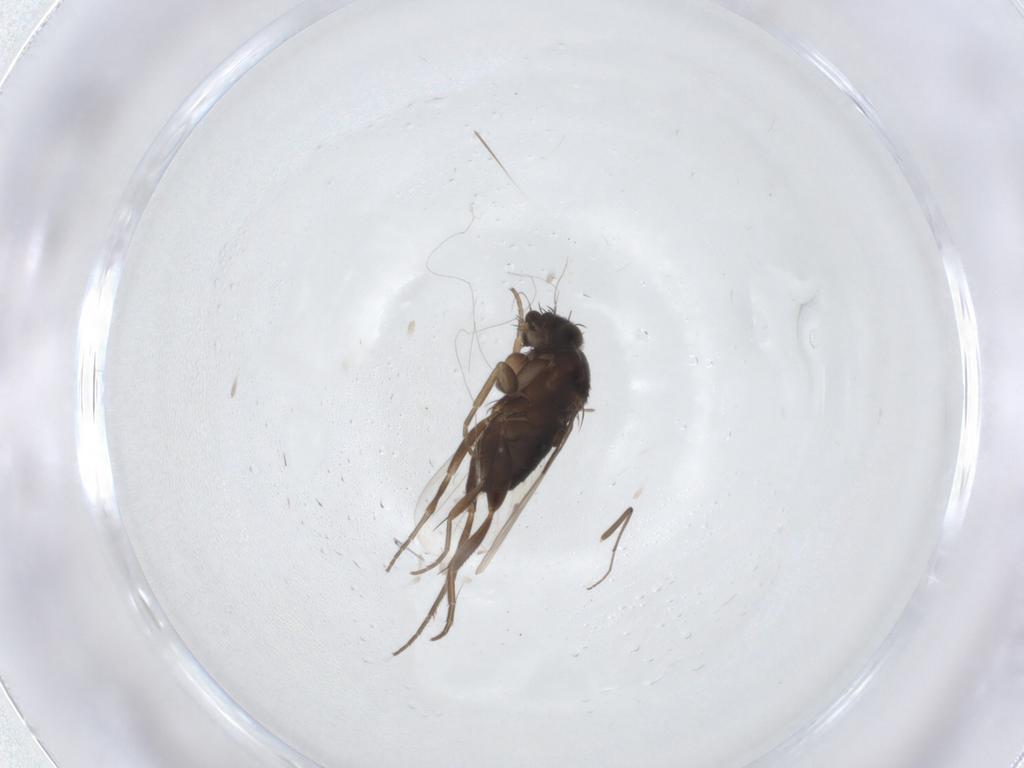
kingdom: Animalia
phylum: Arthropoda
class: Insecta
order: Diptera
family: Phoridae
